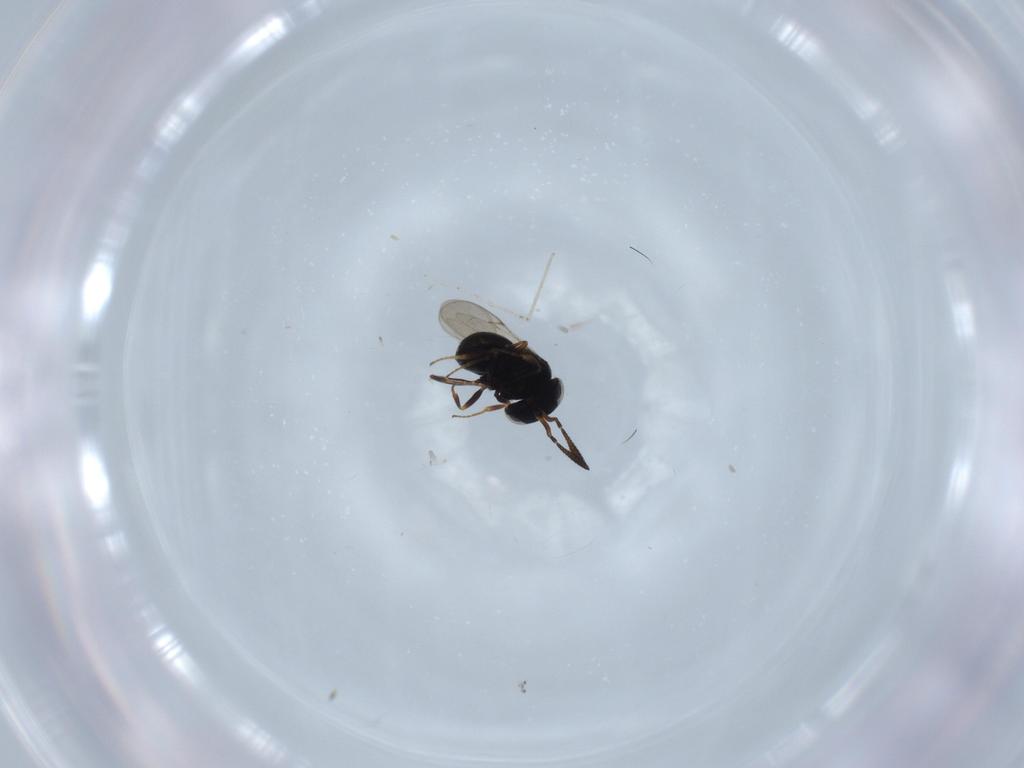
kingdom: Animalia
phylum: Arthropoda
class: Insecta
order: Hymenoptera
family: Scelionidae
